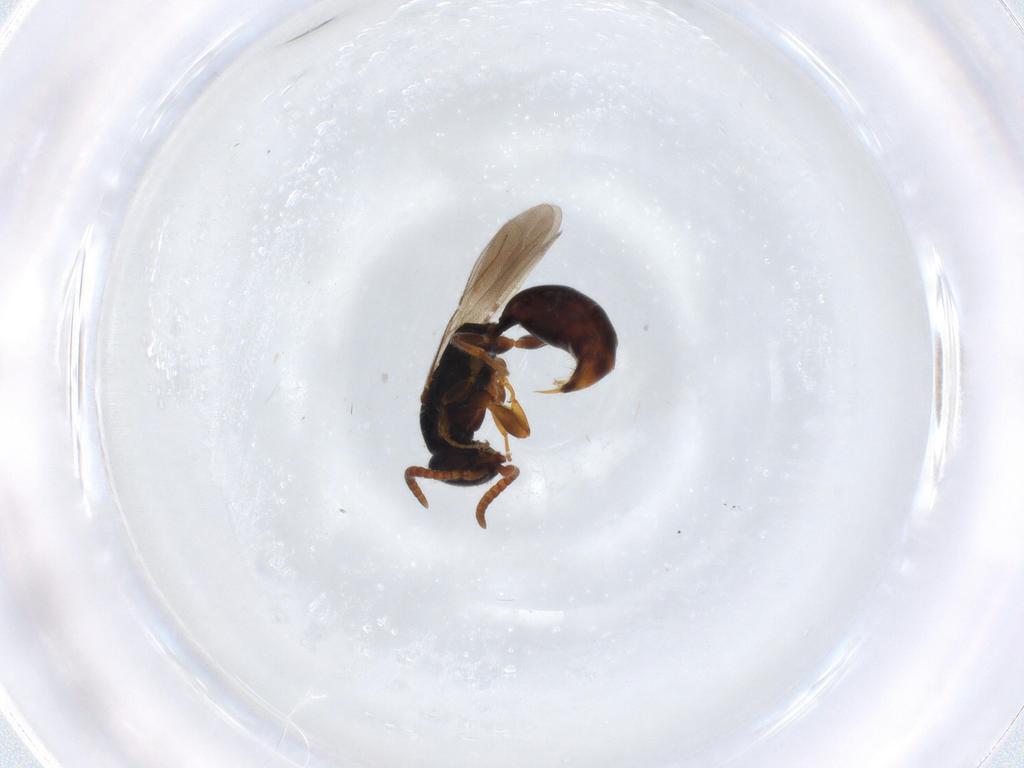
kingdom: Animalia
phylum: Arthropoda
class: Insecta
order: Hymenoptera
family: Bethylidae
